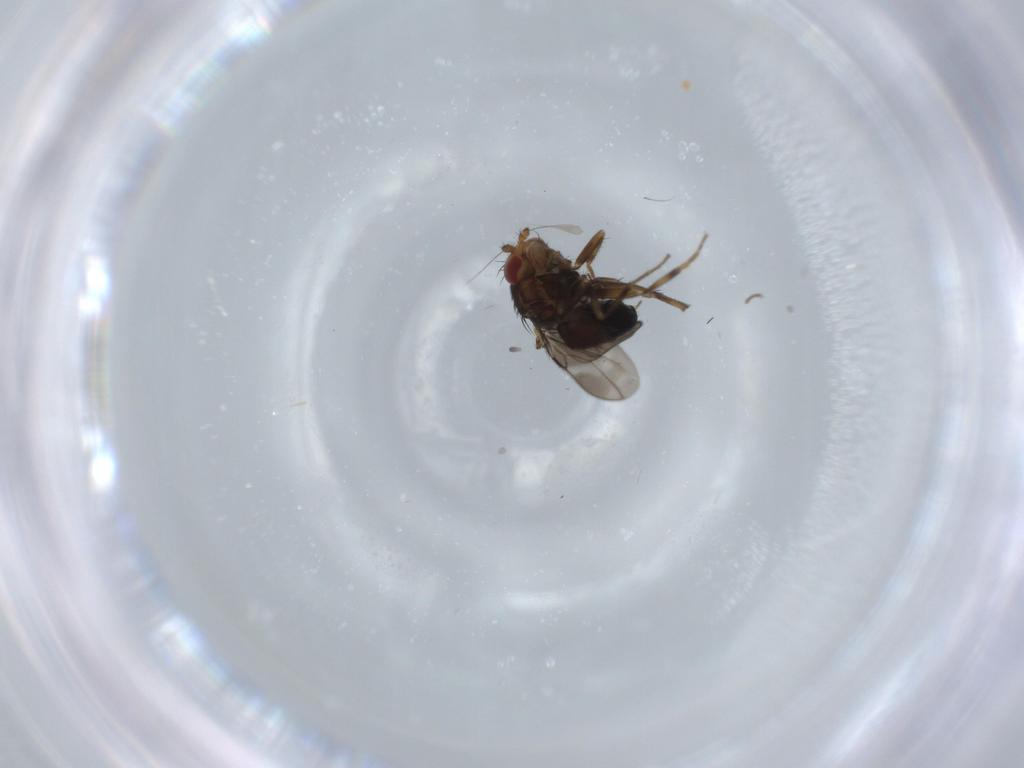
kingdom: Animalia
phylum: Arthropoda
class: Insecta
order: Diptera
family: Sphaeroceridae
